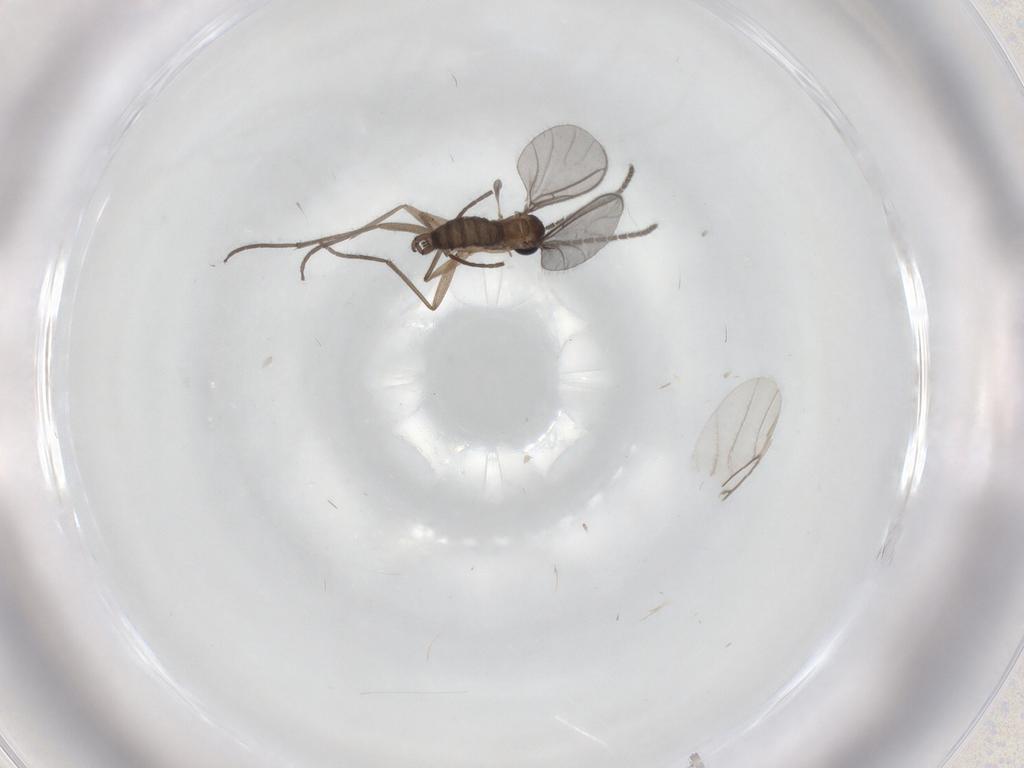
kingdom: Animalia
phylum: Arthropoda
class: Insecta
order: Diptera
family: Sciaridae
